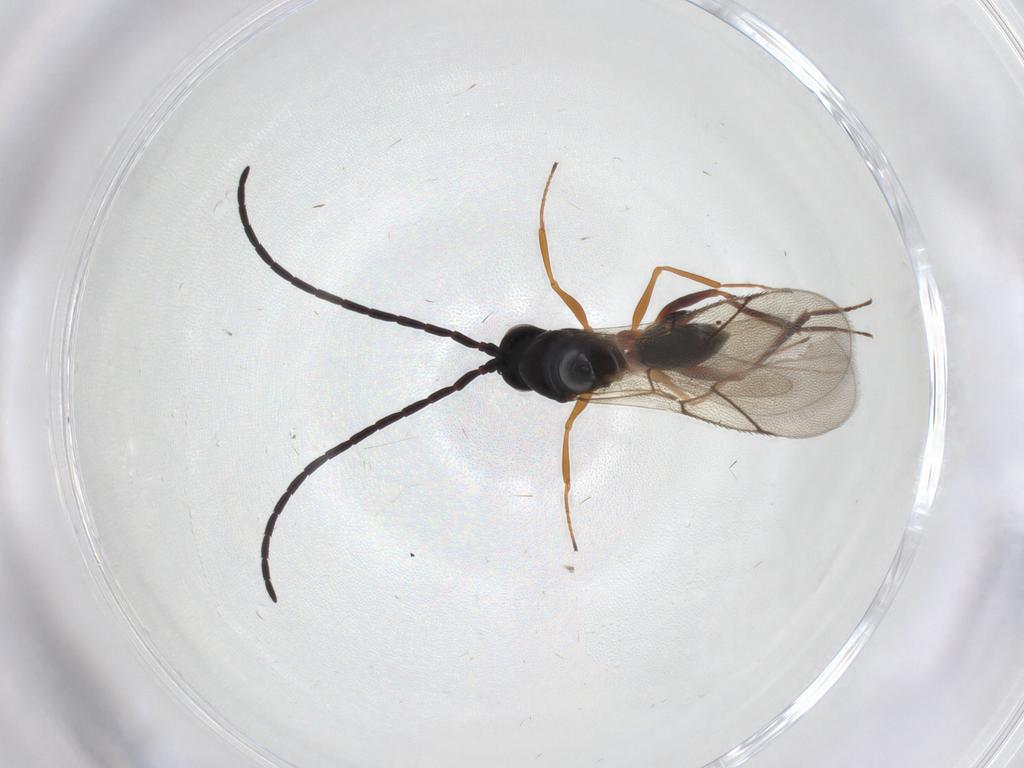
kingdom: Animalia
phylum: Arthropoda
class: Insecta
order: Hymenoptera
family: Figitidae
